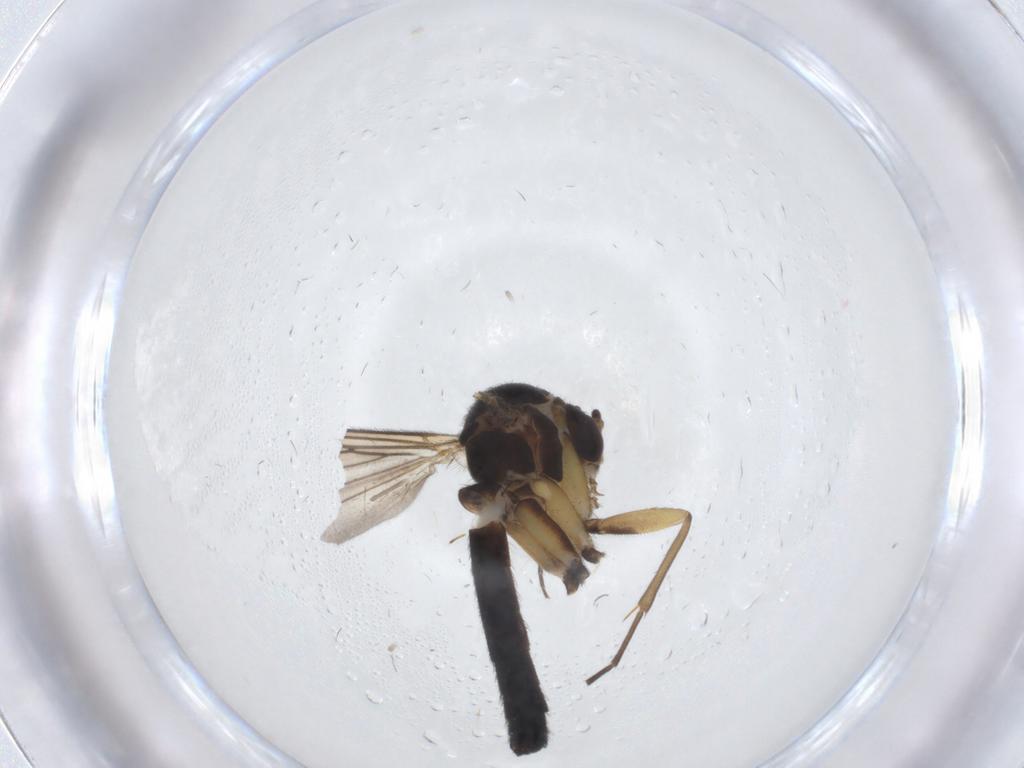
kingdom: Animalia
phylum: Arthropoda
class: Insecta
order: Diptera
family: Phoridae
